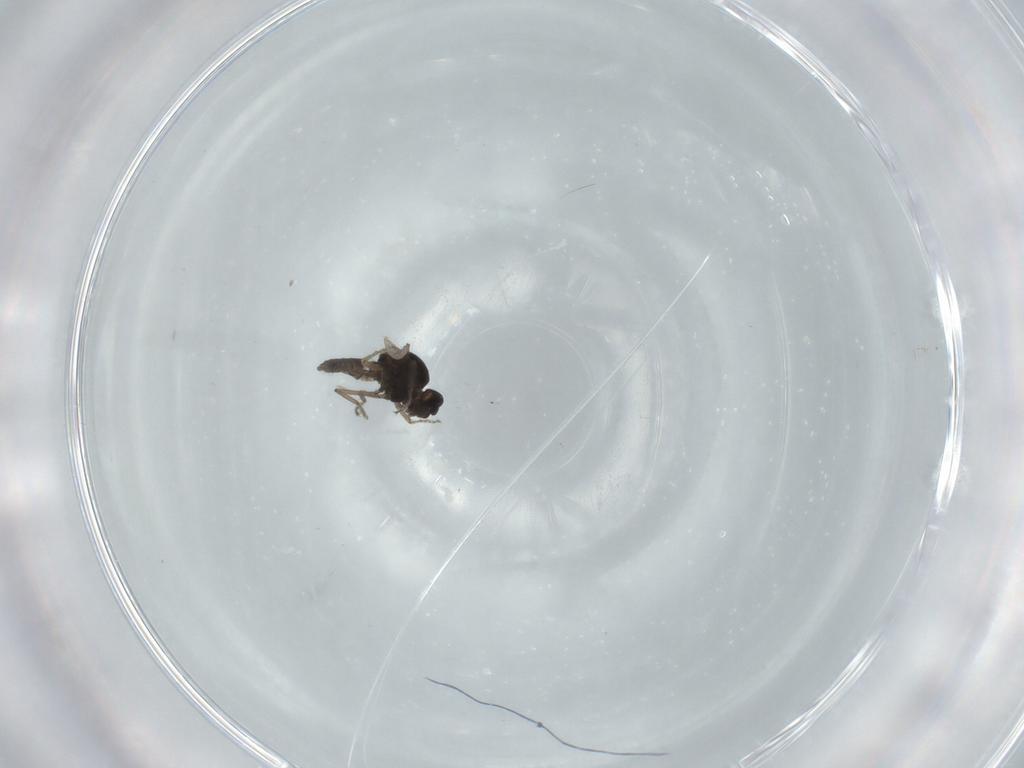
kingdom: Animalia
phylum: Arthropoda
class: Insecta
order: Diptera
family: Ceratopogonidae
